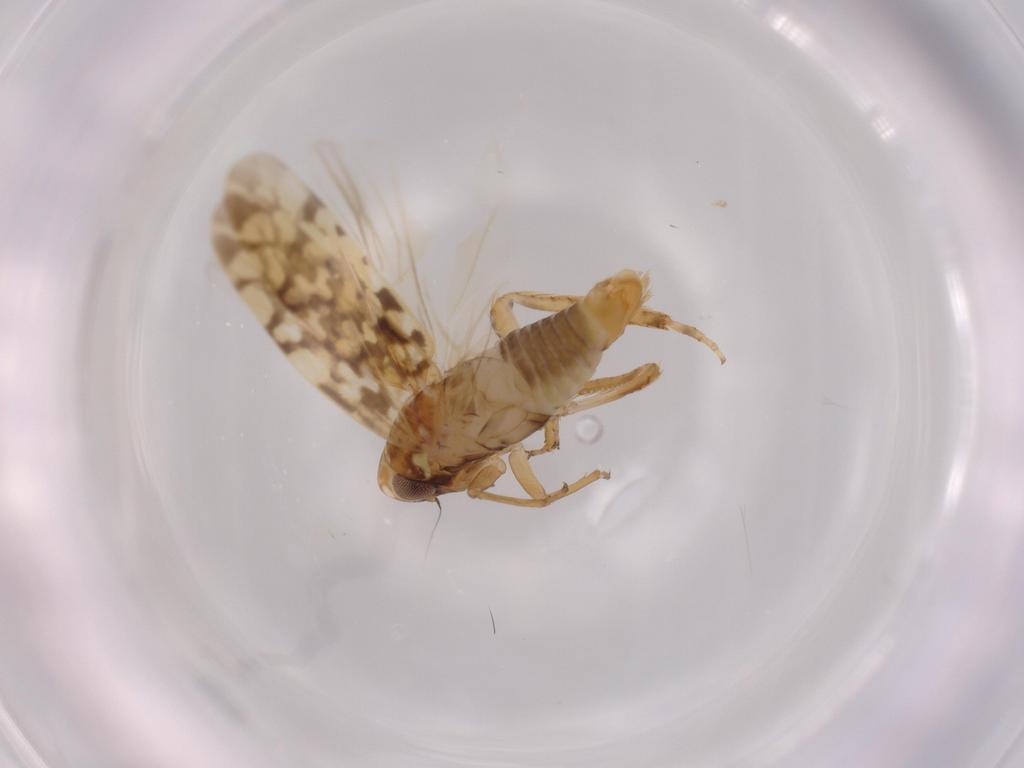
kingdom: Animalia
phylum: Arthropoda
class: Insecta
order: Hemiptera
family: Cicadellidae
